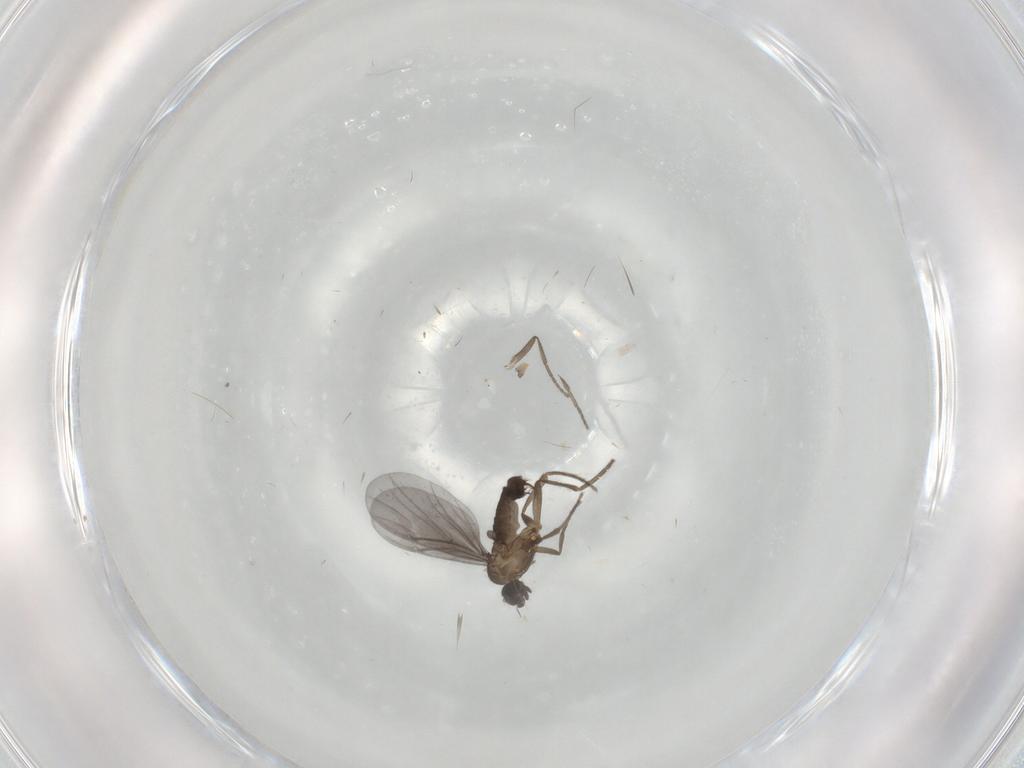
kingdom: Animalia
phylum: Arthropoda
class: Insecta
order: Diptera
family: Phoridae
